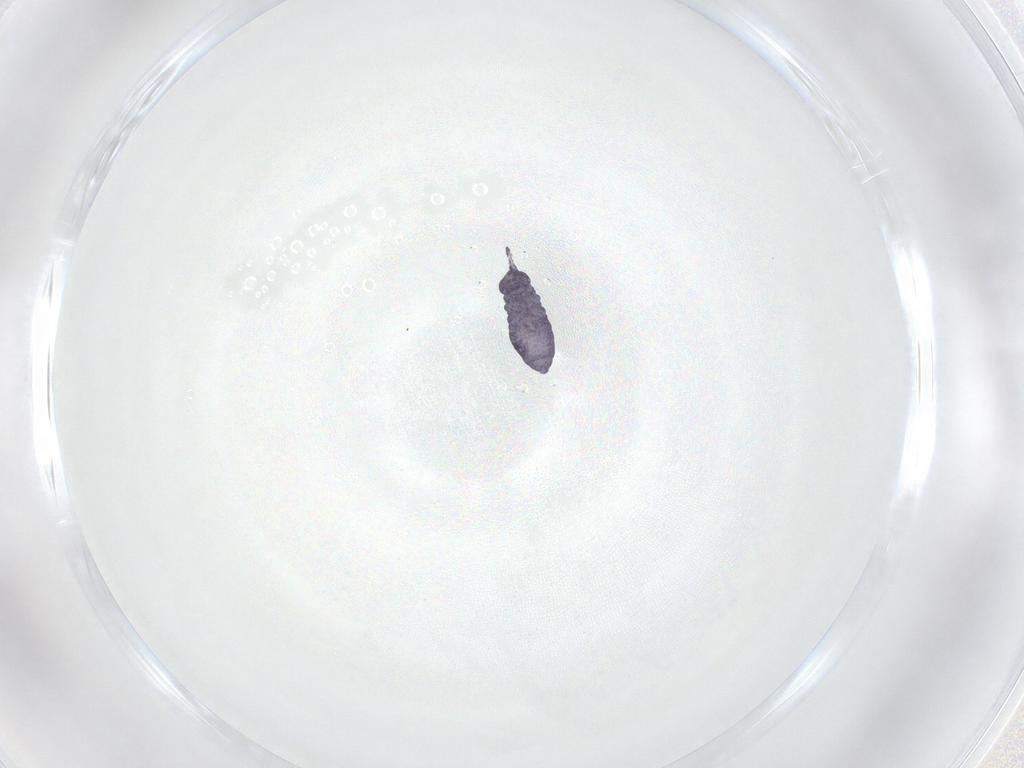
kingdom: Animalia
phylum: Arthropoda
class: Collembola
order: Poduromorpha
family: Brachystomellidae
